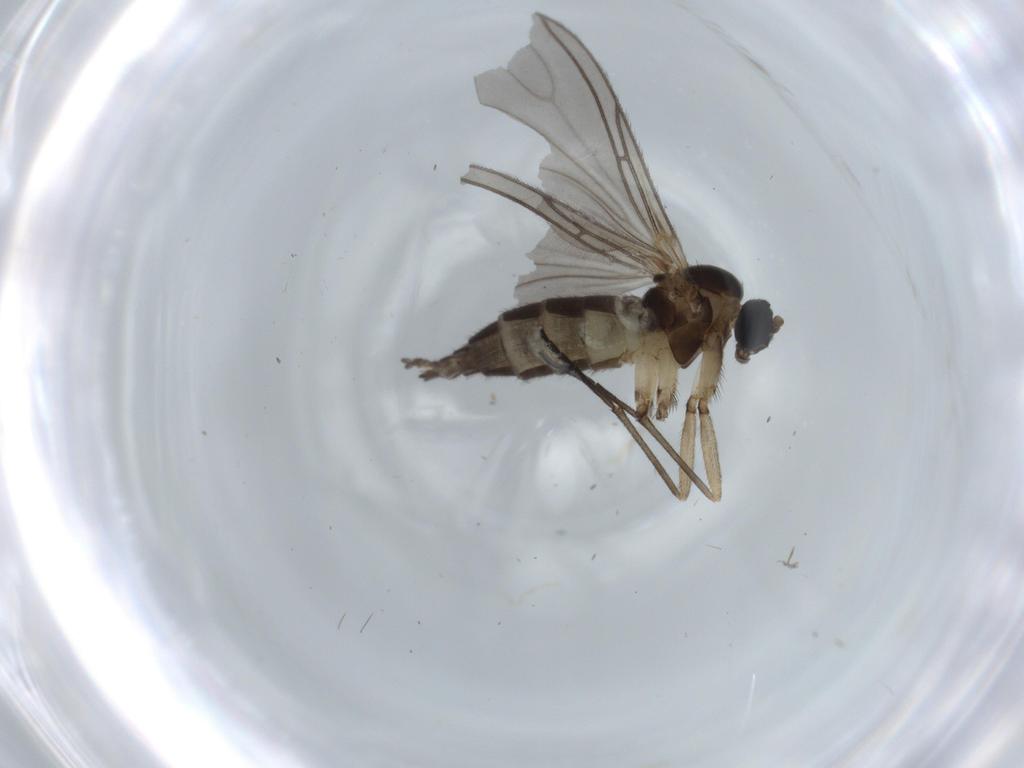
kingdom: Animalia
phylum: Arthropoda
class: Insecta
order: Diptera
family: Sciaridae
